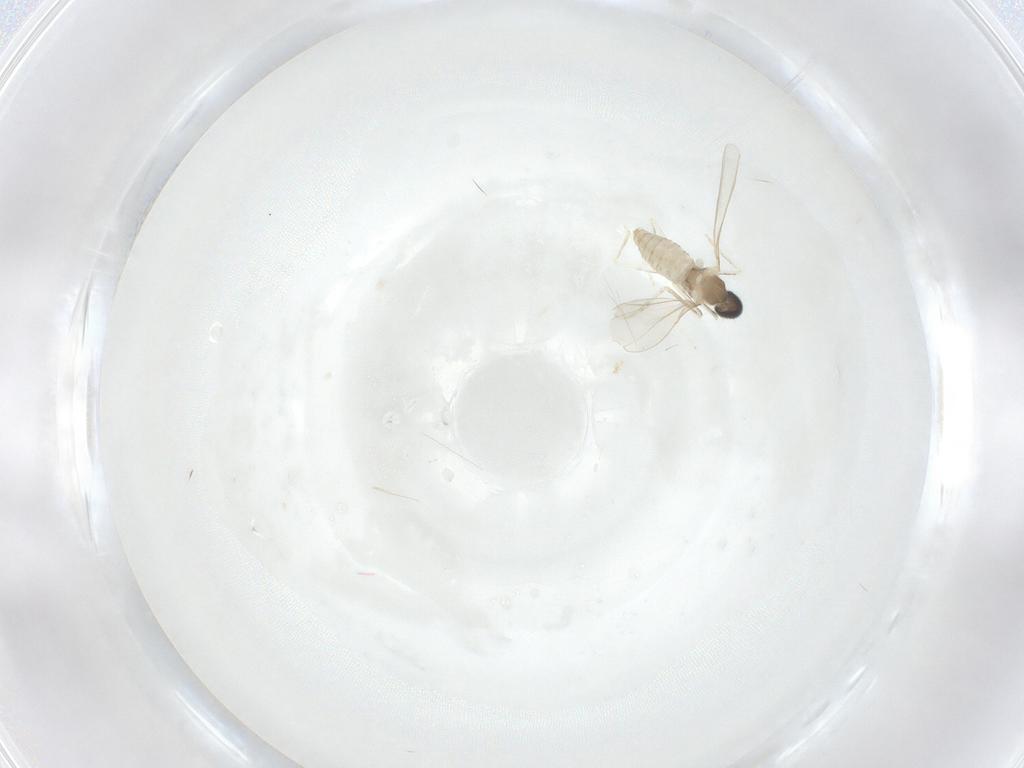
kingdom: Animalia
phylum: Arthropoda
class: Insecta
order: Diptera
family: Cecidomyiidae
